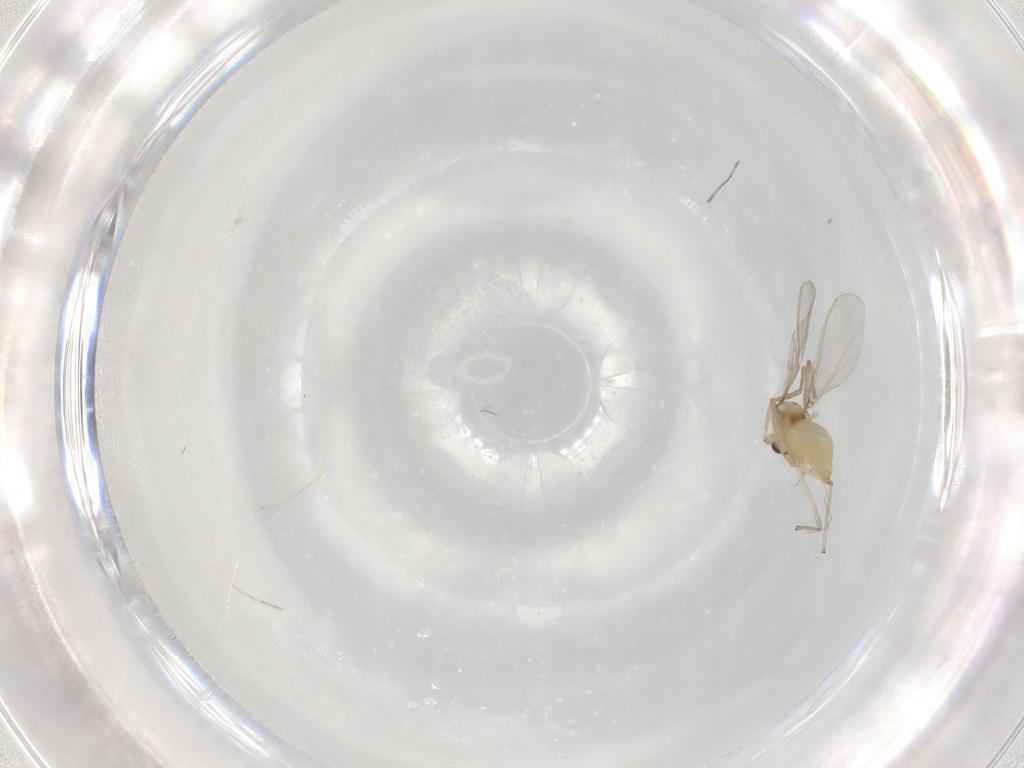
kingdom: Animalia
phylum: Arthropoda
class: Insecta
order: Diptera
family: Chironomidae
